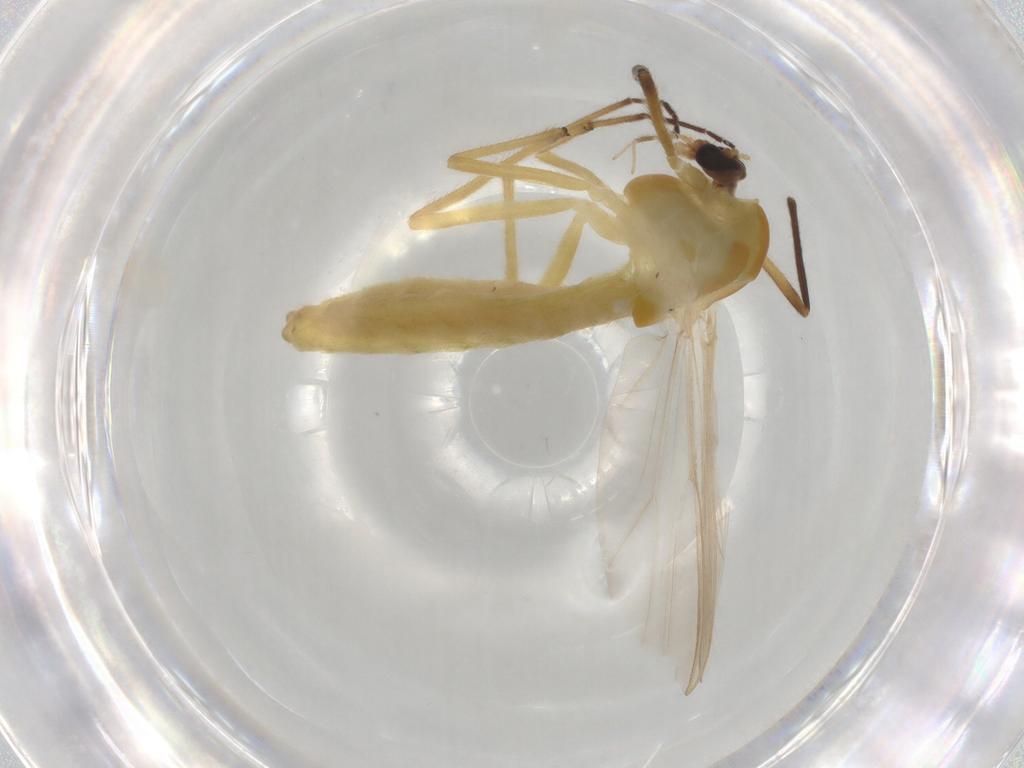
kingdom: Animalia
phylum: Arthropoda
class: Insecta
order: Diptera
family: Chironomidae
